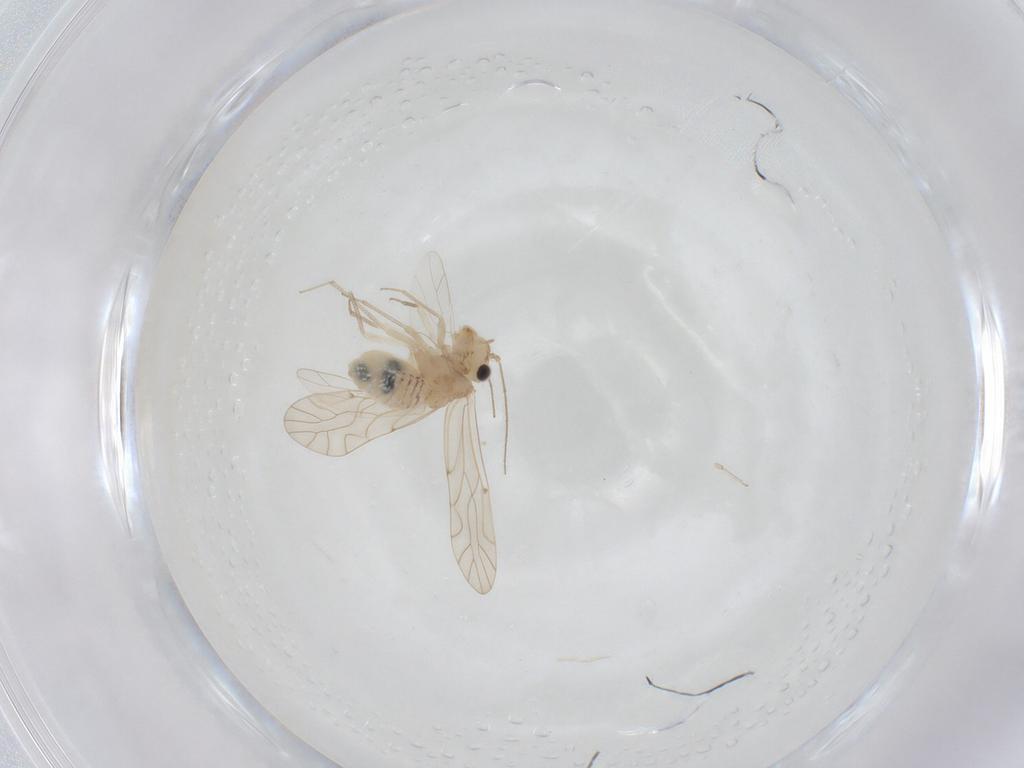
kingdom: Animalia
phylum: Arthropoda
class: Insecta
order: Psocodea
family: Lachesillidae
